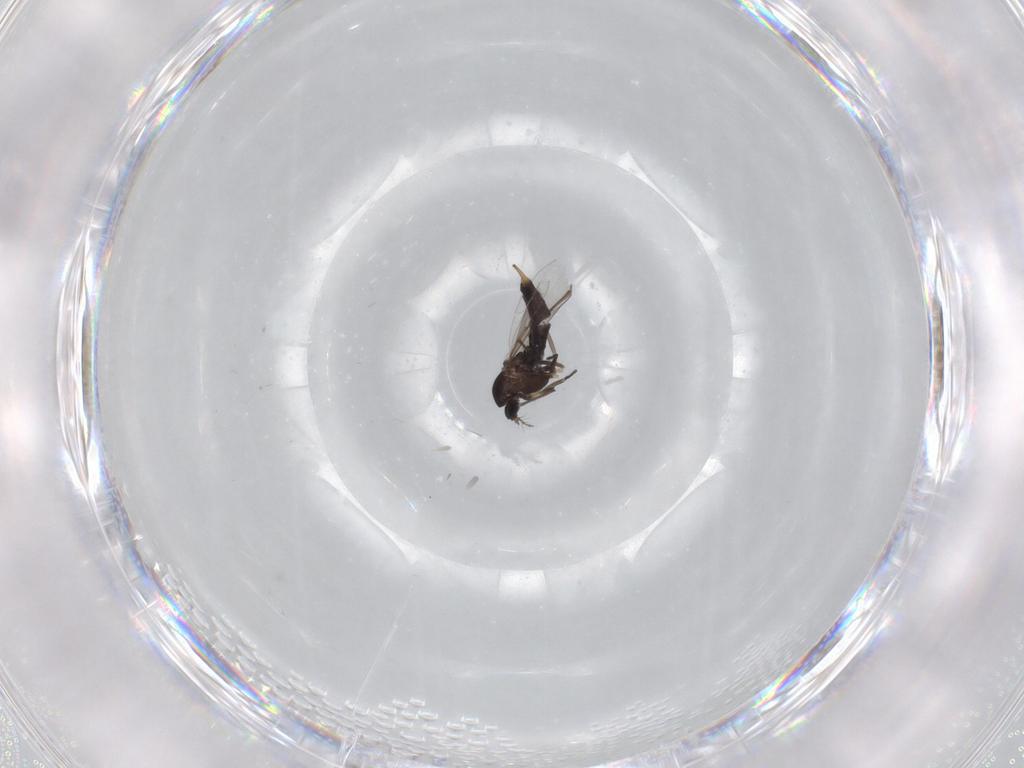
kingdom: Animalia
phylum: Arthropoda
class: Insecta
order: Diptera
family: Chironomidae
